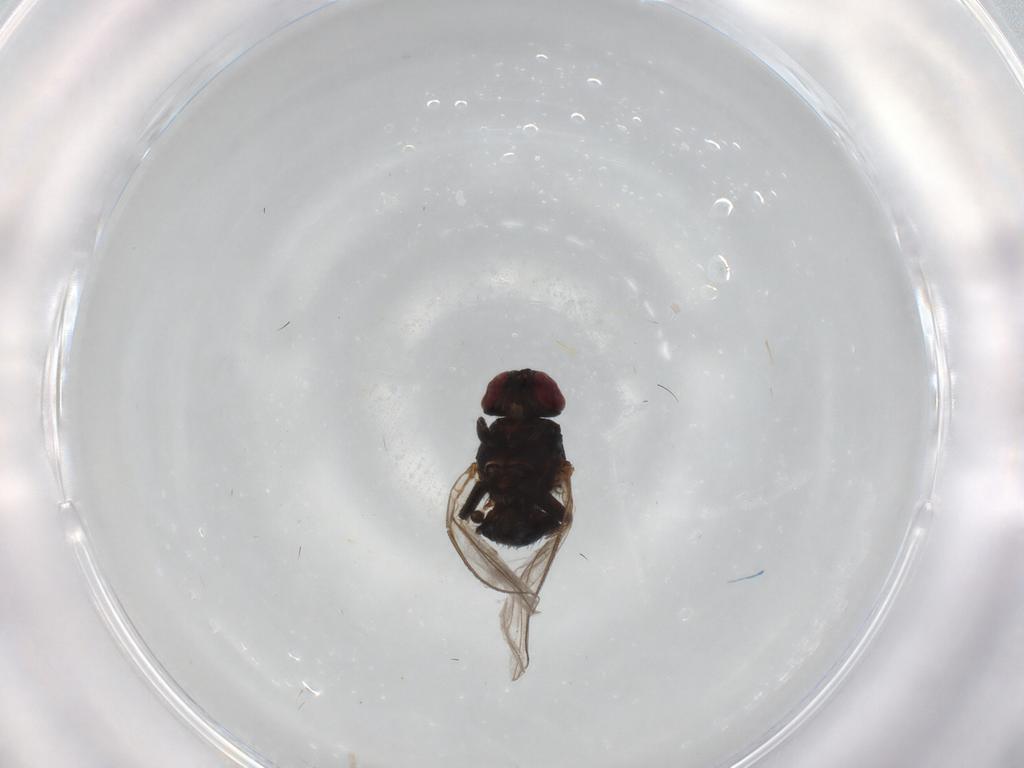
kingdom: Animalia
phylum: Arthropoda
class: Insecta
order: Diptera
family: Agromyzidae
